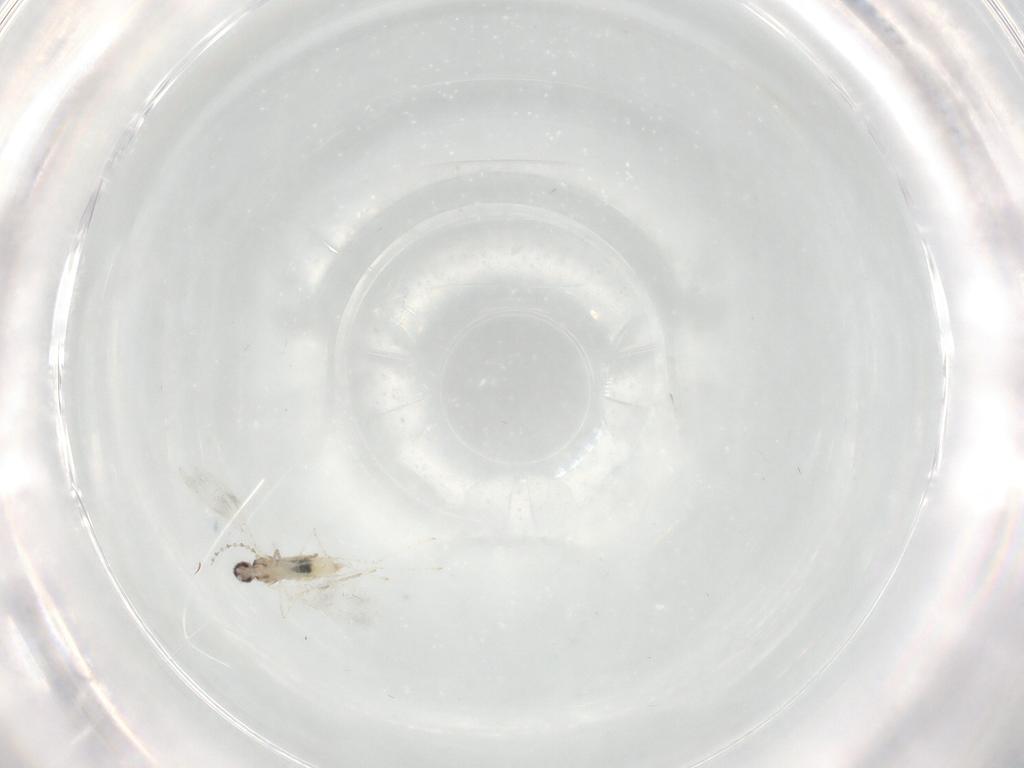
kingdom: Animalia
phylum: Arthropoda
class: Insecta
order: Diptera
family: Cecidomyiidae
